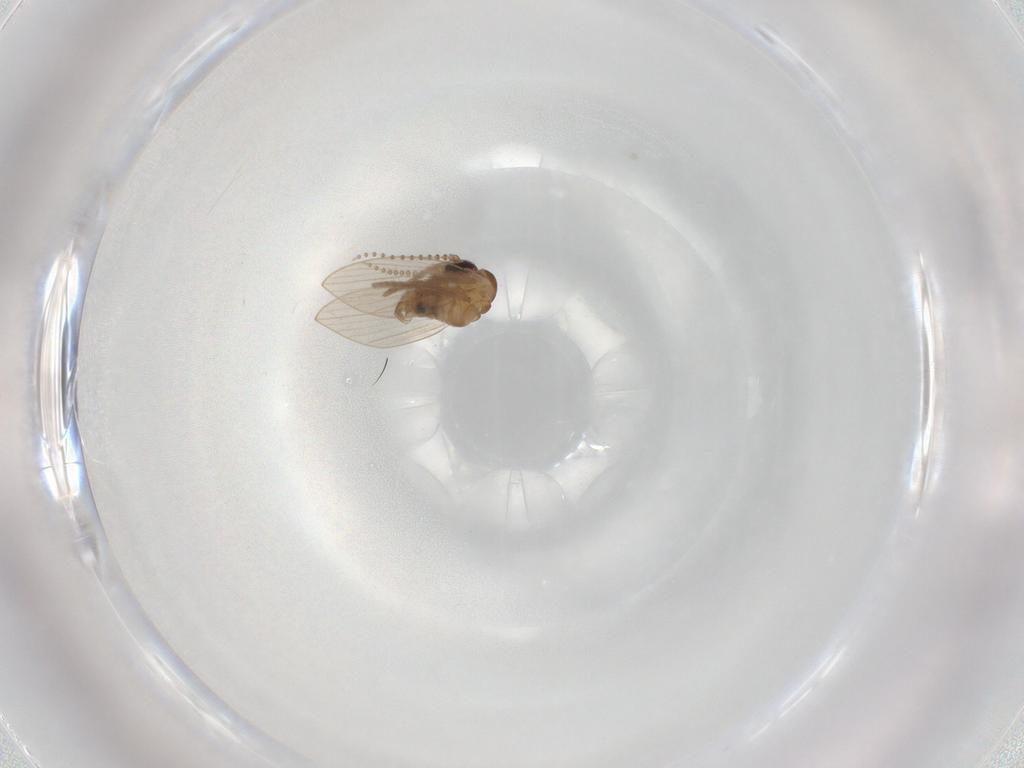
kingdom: Animalia
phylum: Arthropoda
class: Insecta
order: Diptera
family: Psychodidae
